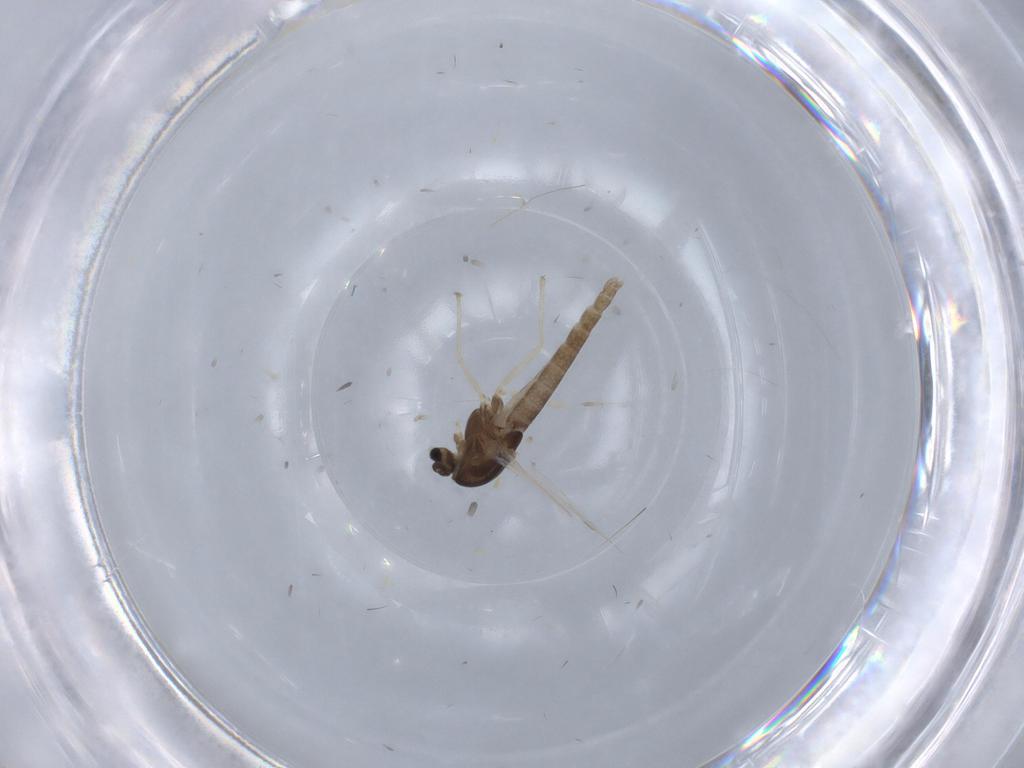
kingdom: Animalia
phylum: Arthropoda
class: Insecta
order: Diptera
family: Chironomidae
